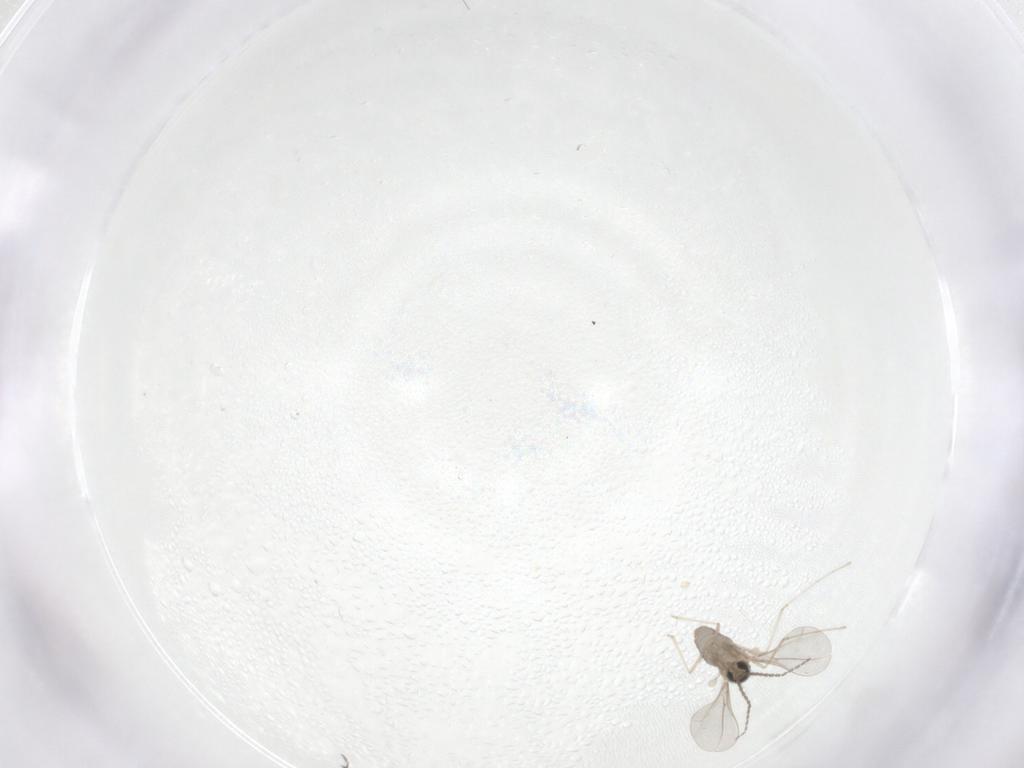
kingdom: Animalia
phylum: Arthropoda
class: Insecta
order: Diptera
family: Cecidomyiidae
